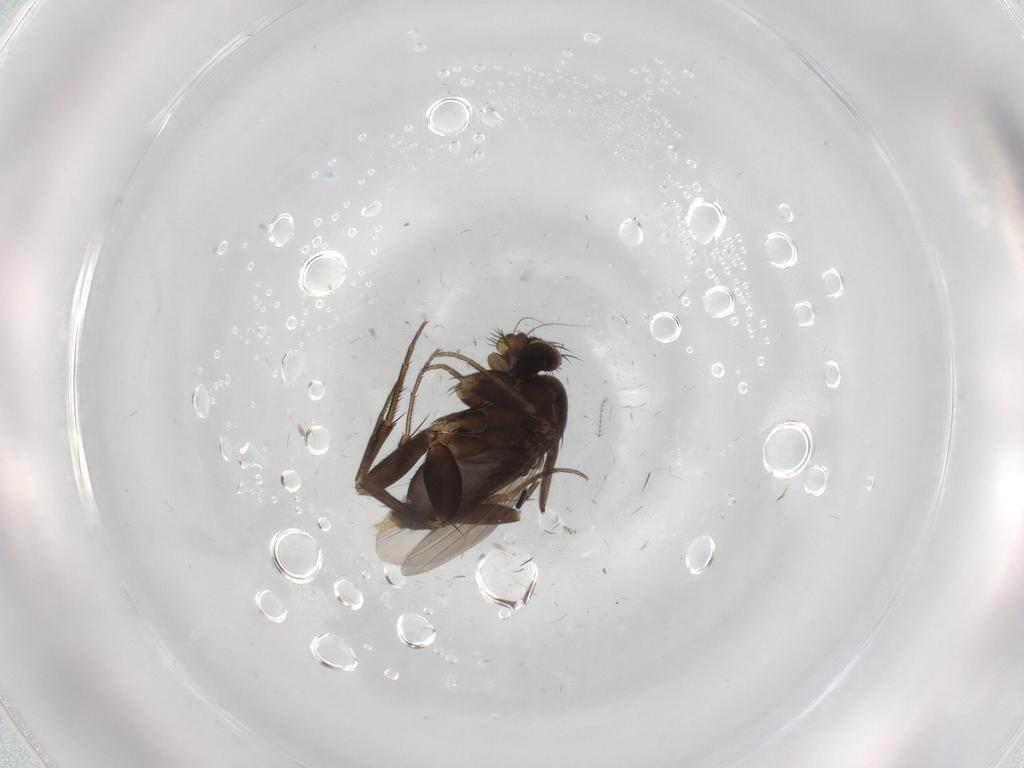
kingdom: Animalia
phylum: Arthropoda
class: Insecta
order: Diptera
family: Phoridae
